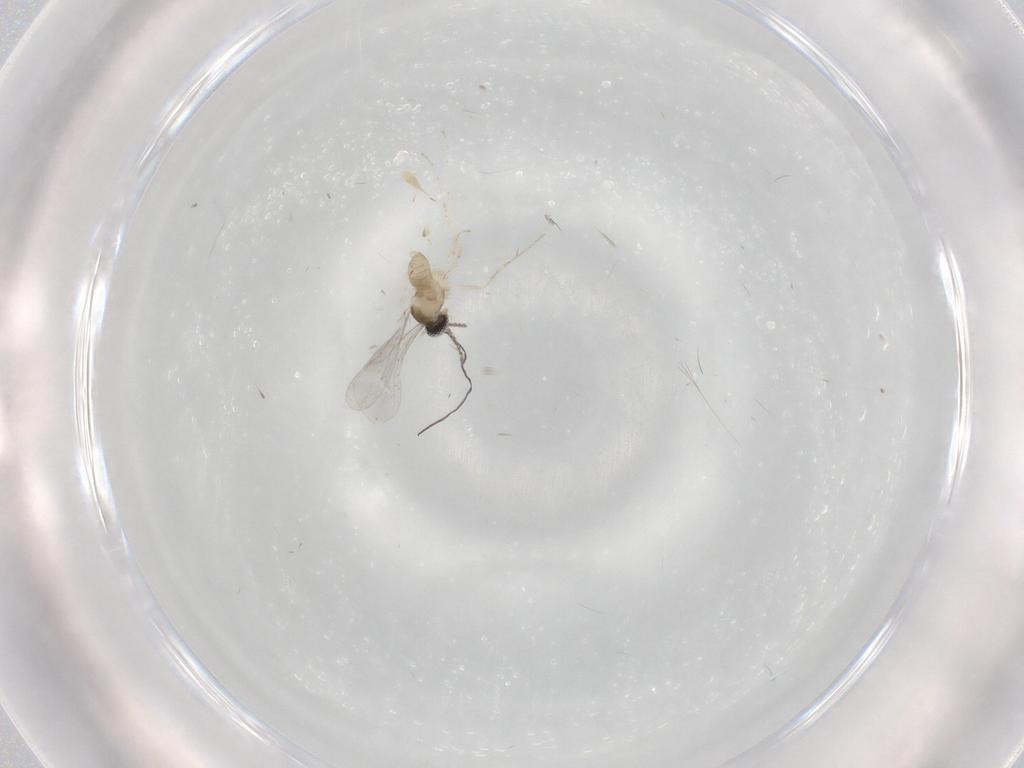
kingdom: Animalia
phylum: Arthropoda
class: Insecta
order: Diptera
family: Cecidomyiidae
